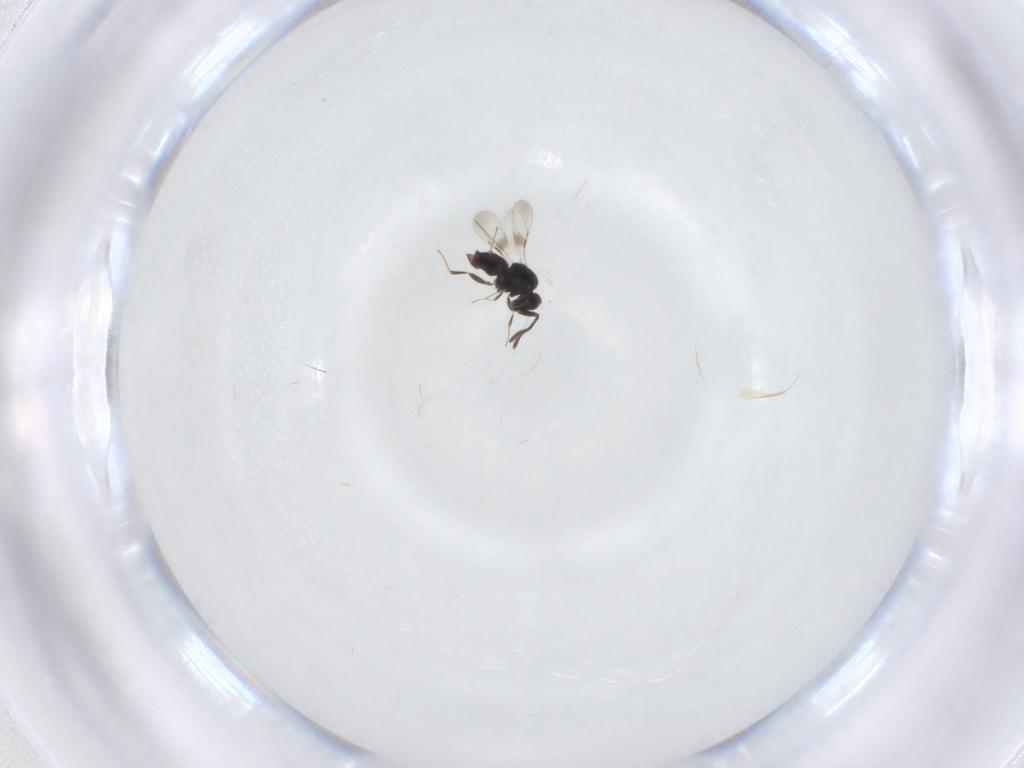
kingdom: Animalia
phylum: Arthropoda
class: Insecta
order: Hymenoptera
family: Ceraphronidae
